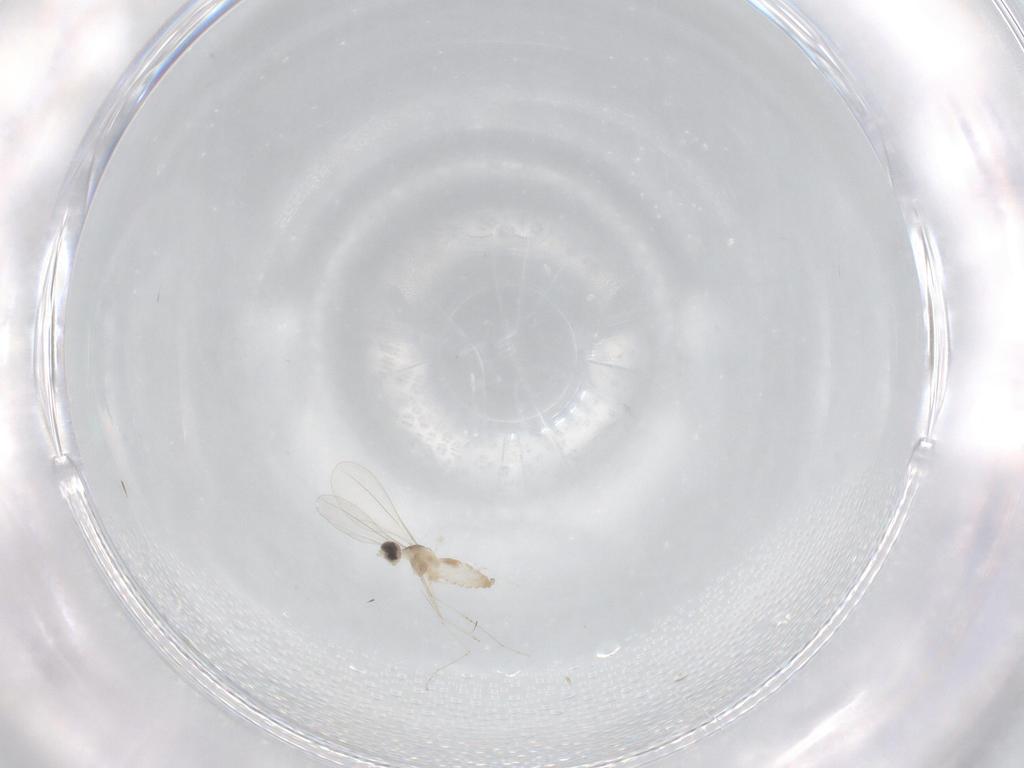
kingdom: Animalia
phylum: Arthropoda
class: Insecta
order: Diptera
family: Cecidomyiidae
